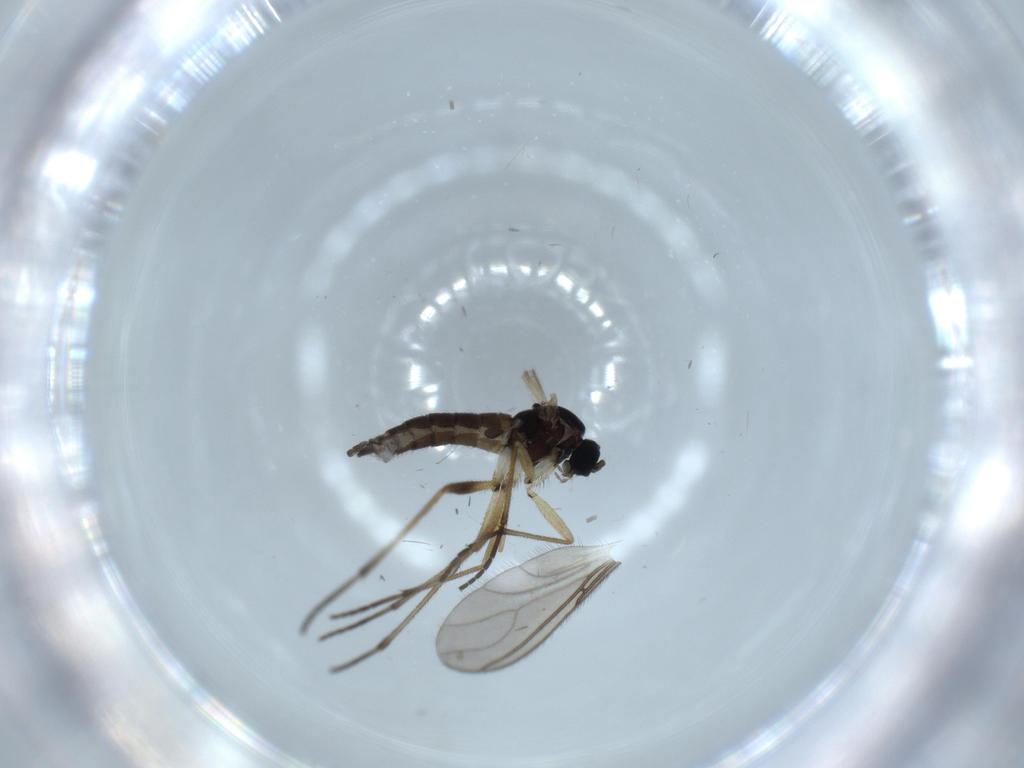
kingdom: Animalia
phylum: Arthropoda
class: Insecta
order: Diptera
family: Sciaridae
